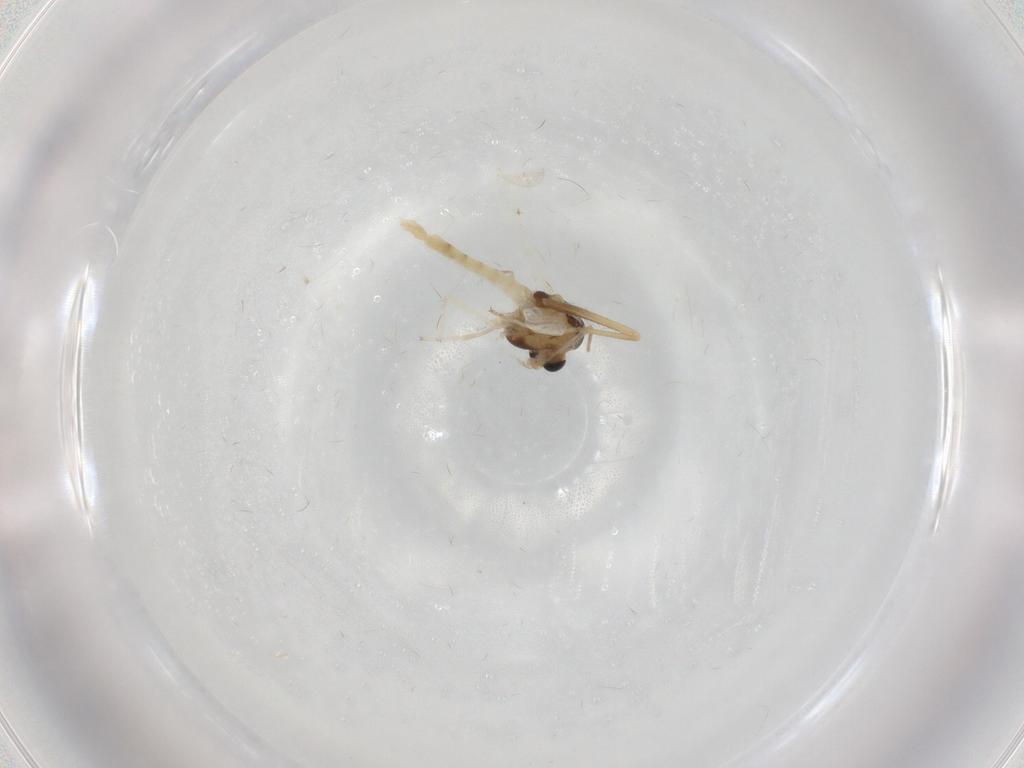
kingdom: Animalia
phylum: Arthropoda
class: Insecta
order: Diptera
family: Chironomidae
